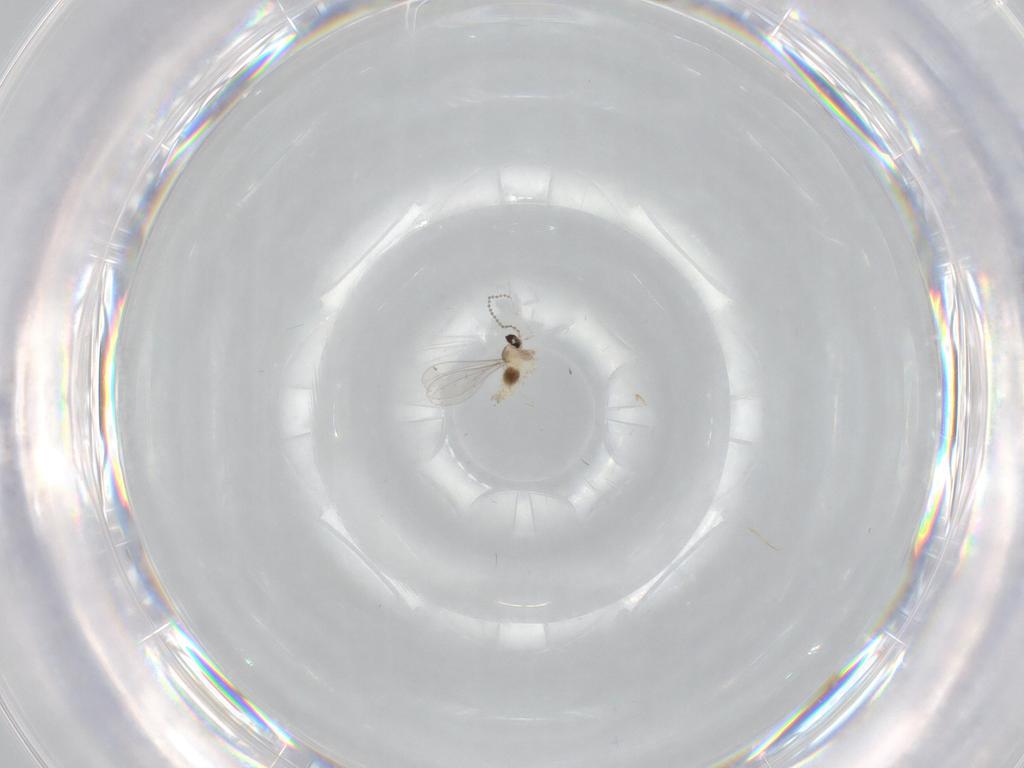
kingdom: Animalia
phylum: Arthropoda
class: Insecta
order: Diptera
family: Cecidomyiidae
